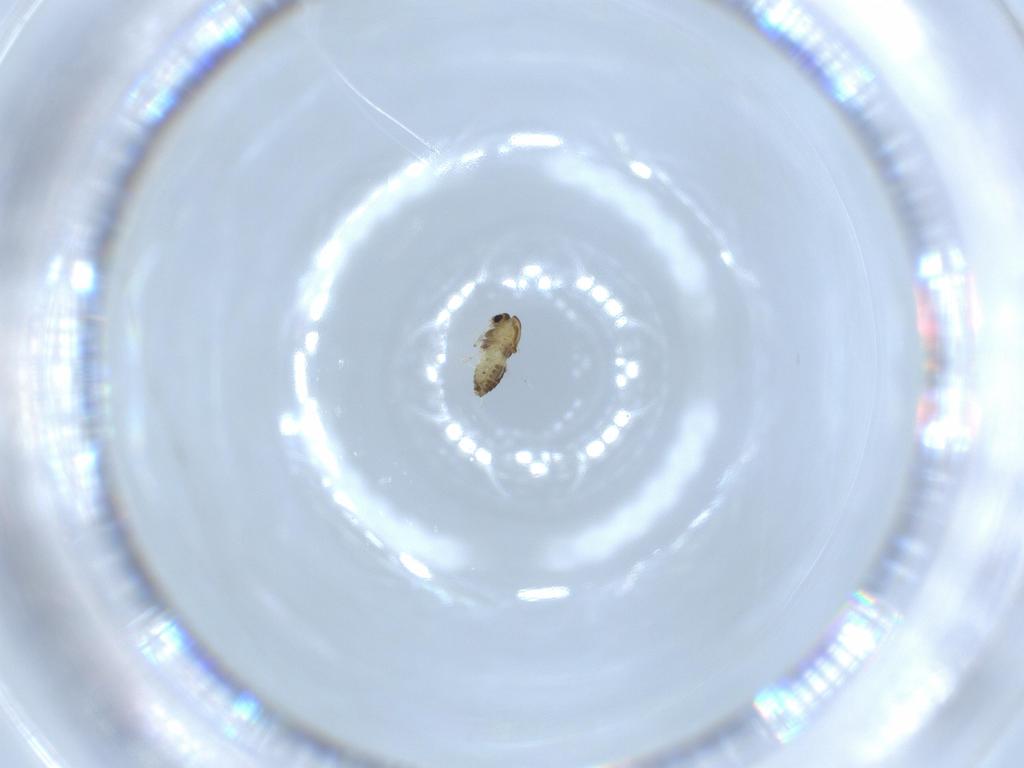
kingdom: Animalia
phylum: Arthropoda
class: Insecta
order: Diptera
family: Chironomidae
